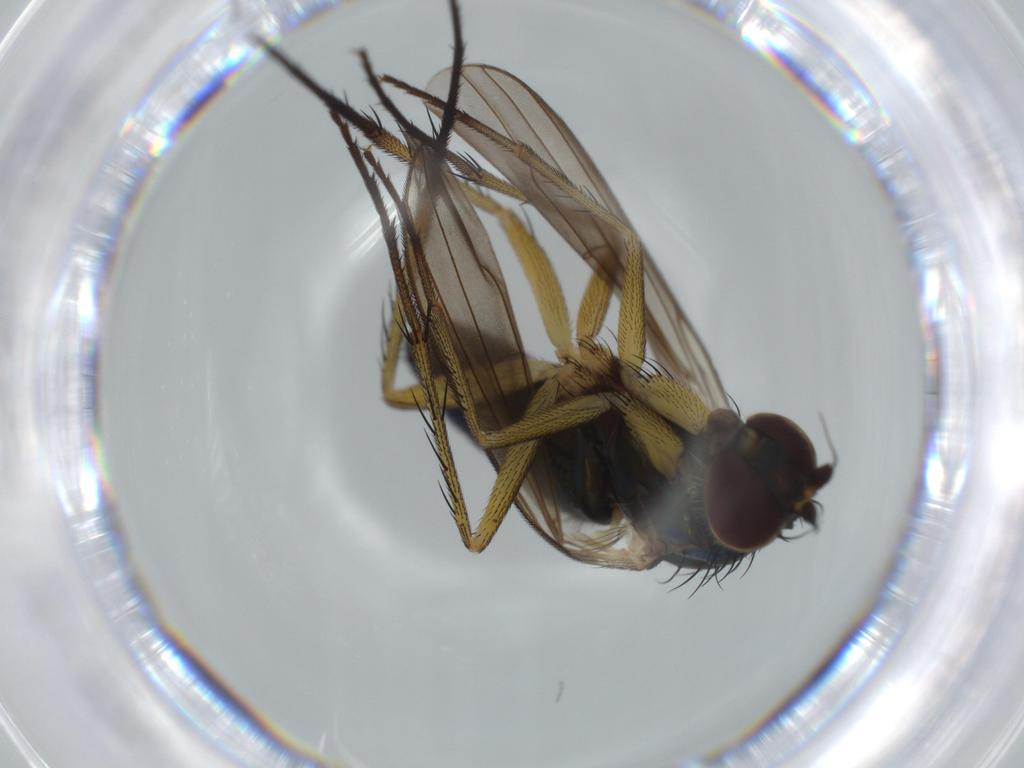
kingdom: Animalia
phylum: Arthropoda
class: Insecta
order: Diptera
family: Dolichopodidae
